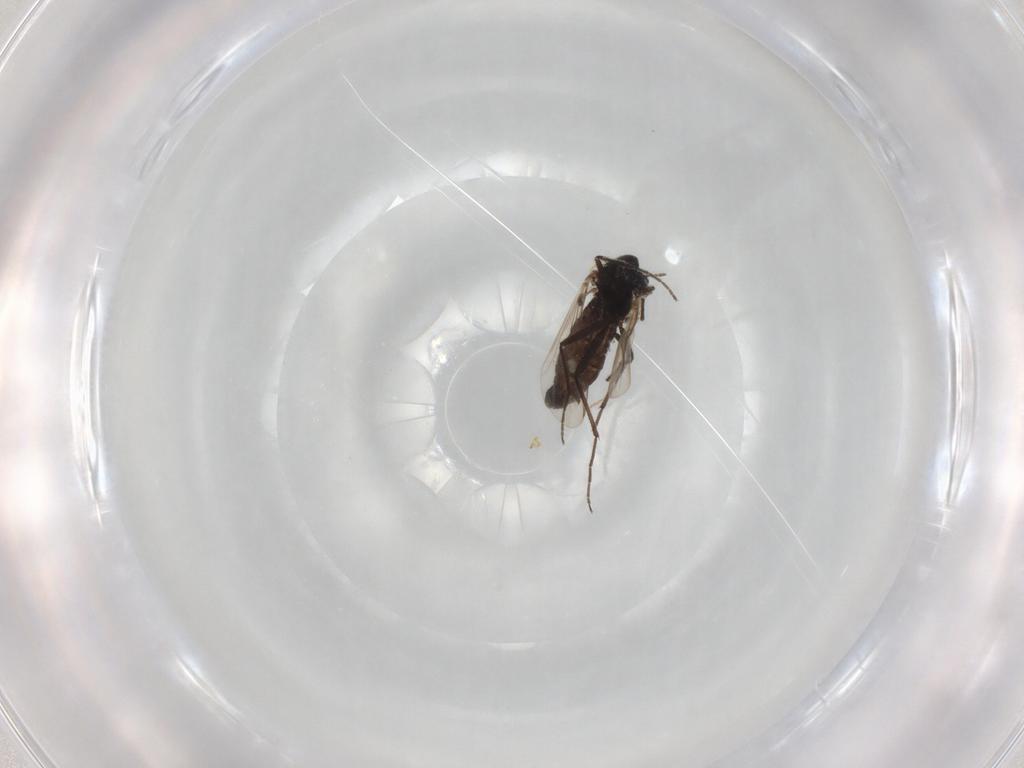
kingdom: Animalia
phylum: Arthropoda
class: Insecta
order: Diptera
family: Chironomidae
